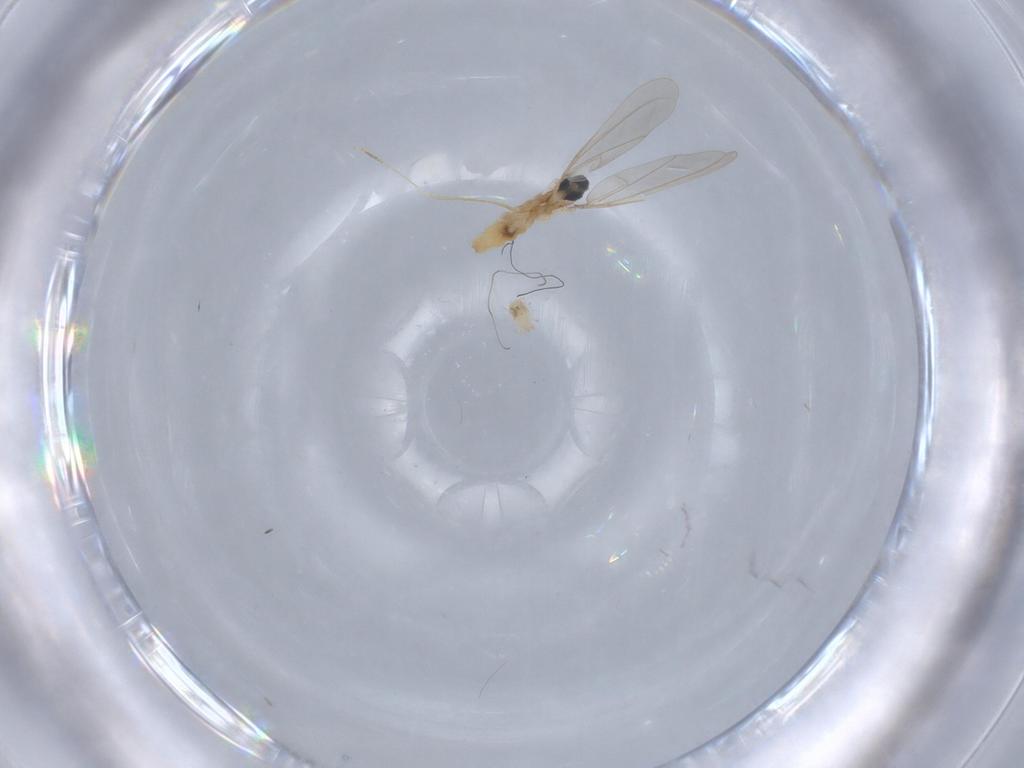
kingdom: Animalia
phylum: Arthropoda
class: Insecta
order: Diptera
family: Cecidomyiidae
